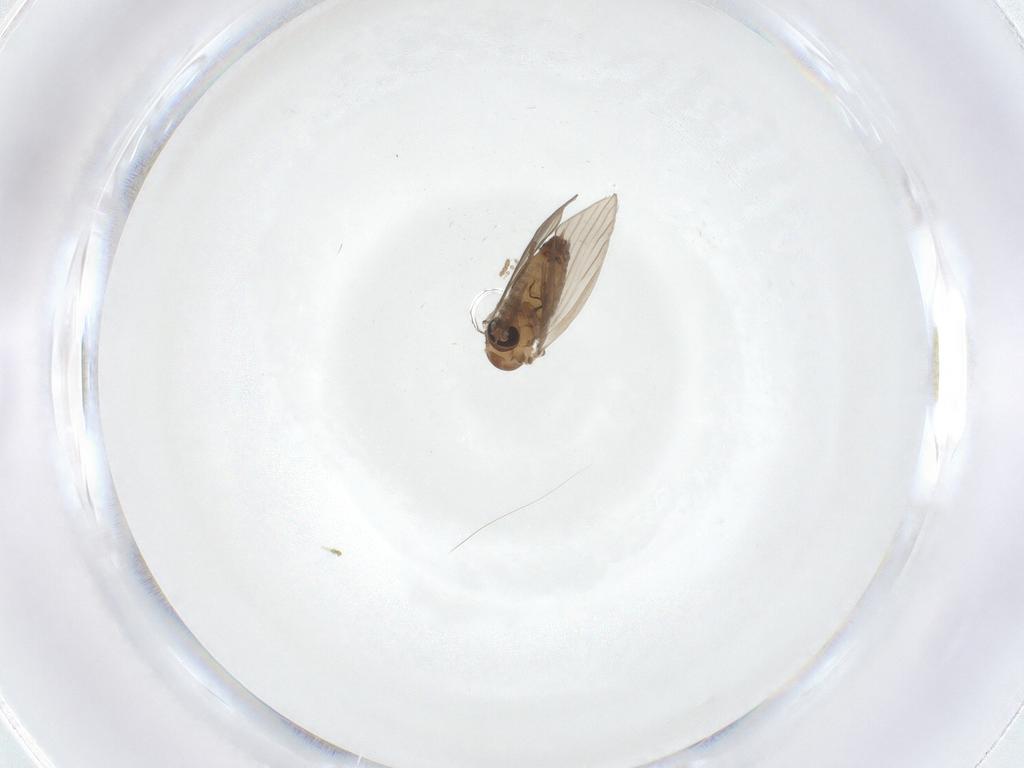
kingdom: Animalia
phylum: Arthropoda
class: Insecta
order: Diptera
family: Psychodidae
